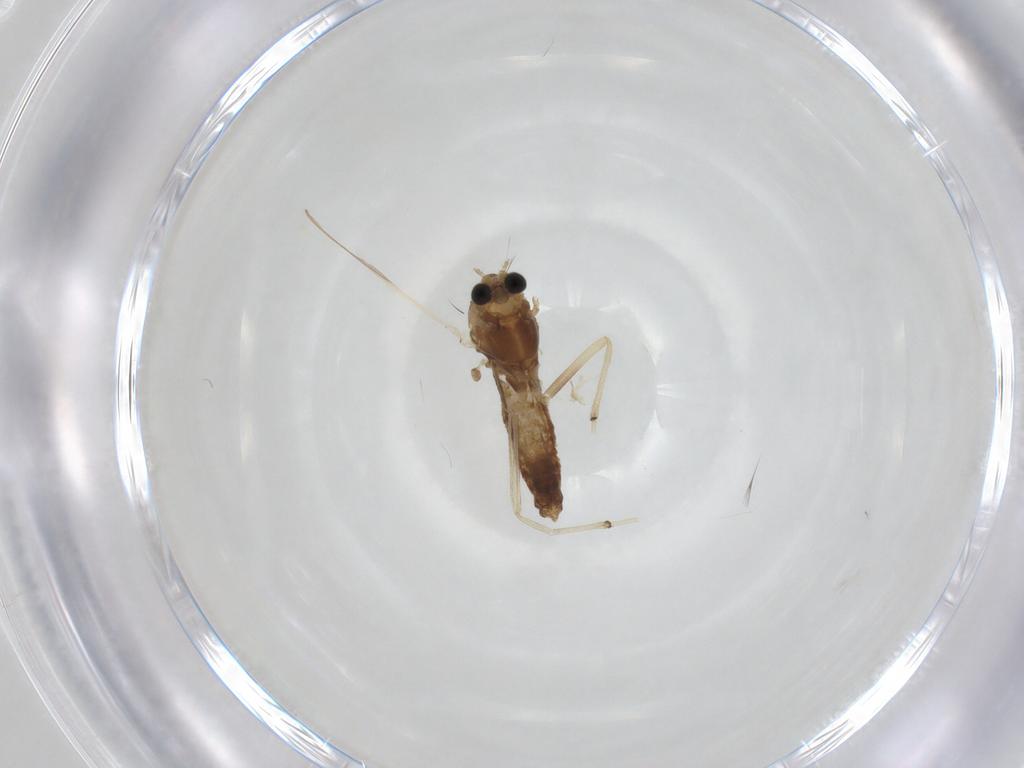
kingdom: Animalia
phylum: Arthropoda
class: Insecta
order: Diptera
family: Chironomidae
